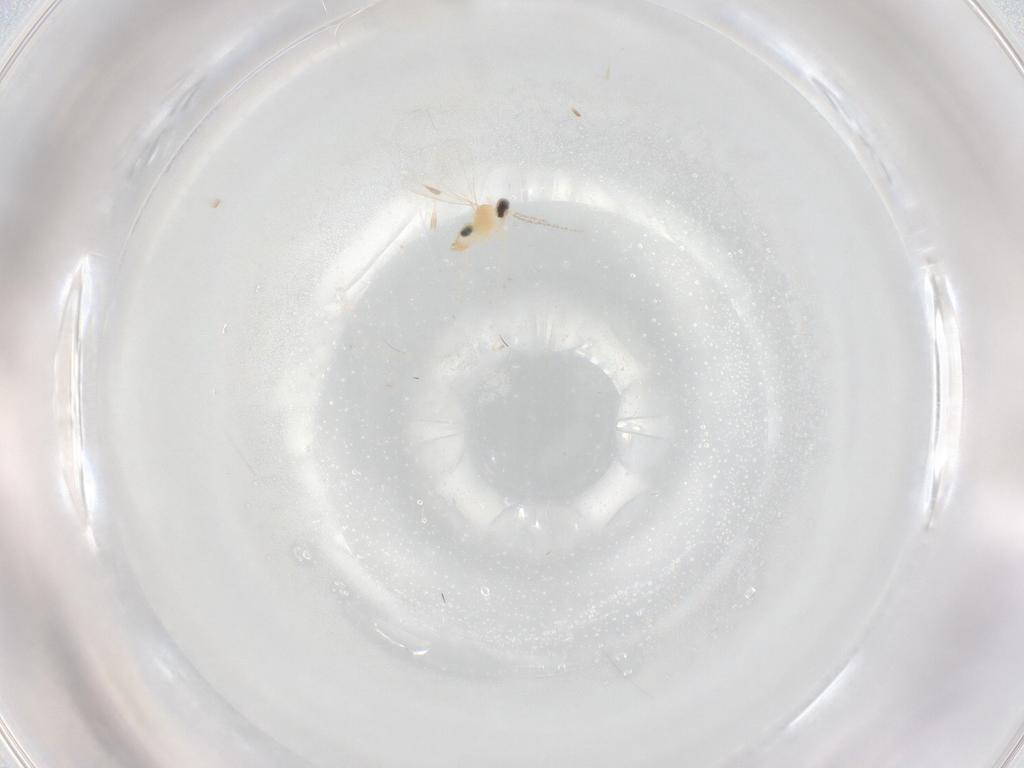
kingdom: Animalia
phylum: Arthropoda
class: Insecta
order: Diptera
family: Cecidomyiidae
